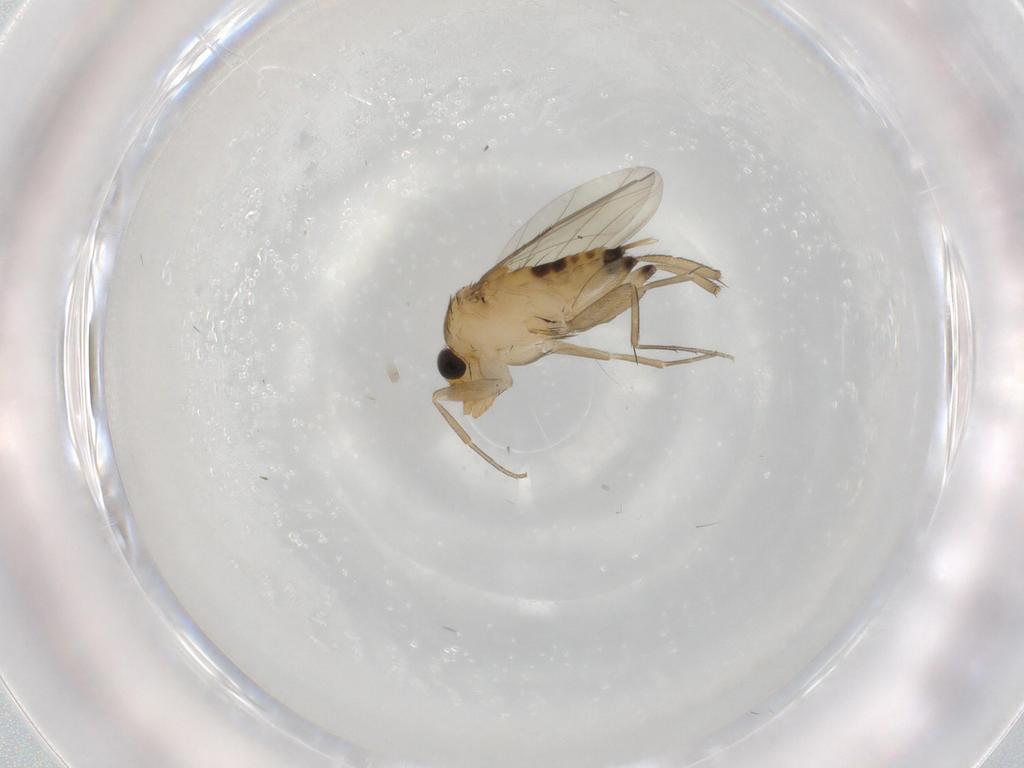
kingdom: Animalia
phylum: Arthropoda
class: Insecta
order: Diptera
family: Phoridae
